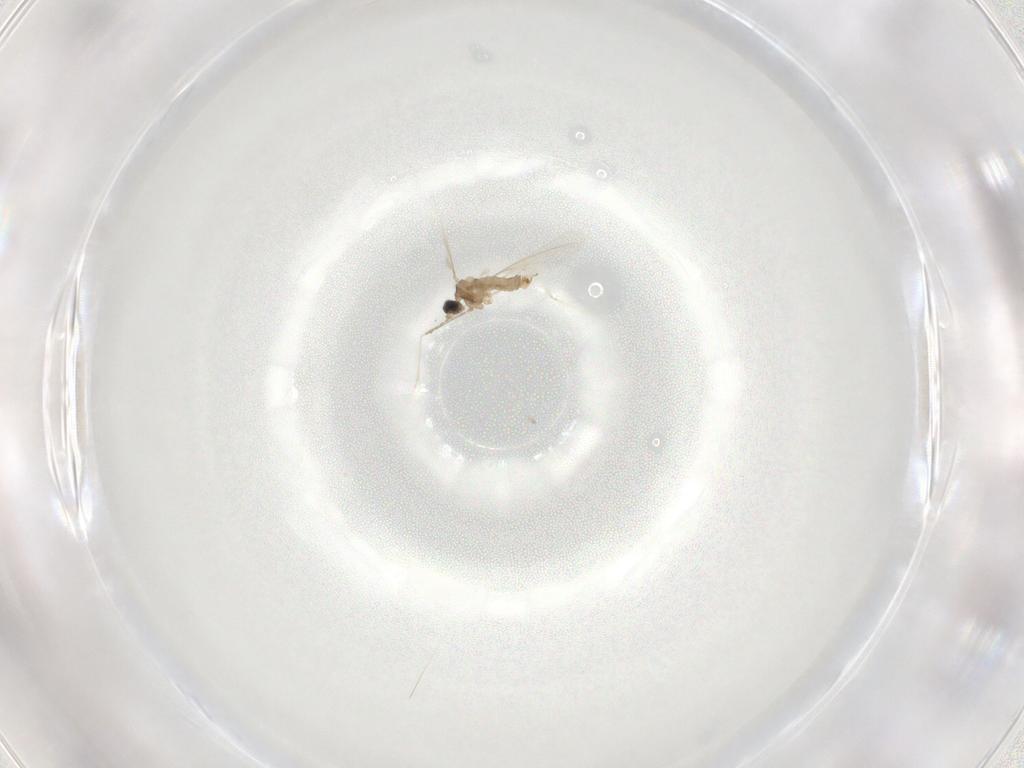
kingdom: Animalia
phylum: Arthropoda
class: Insecta
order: Diptera
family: Cecidomyiidae
